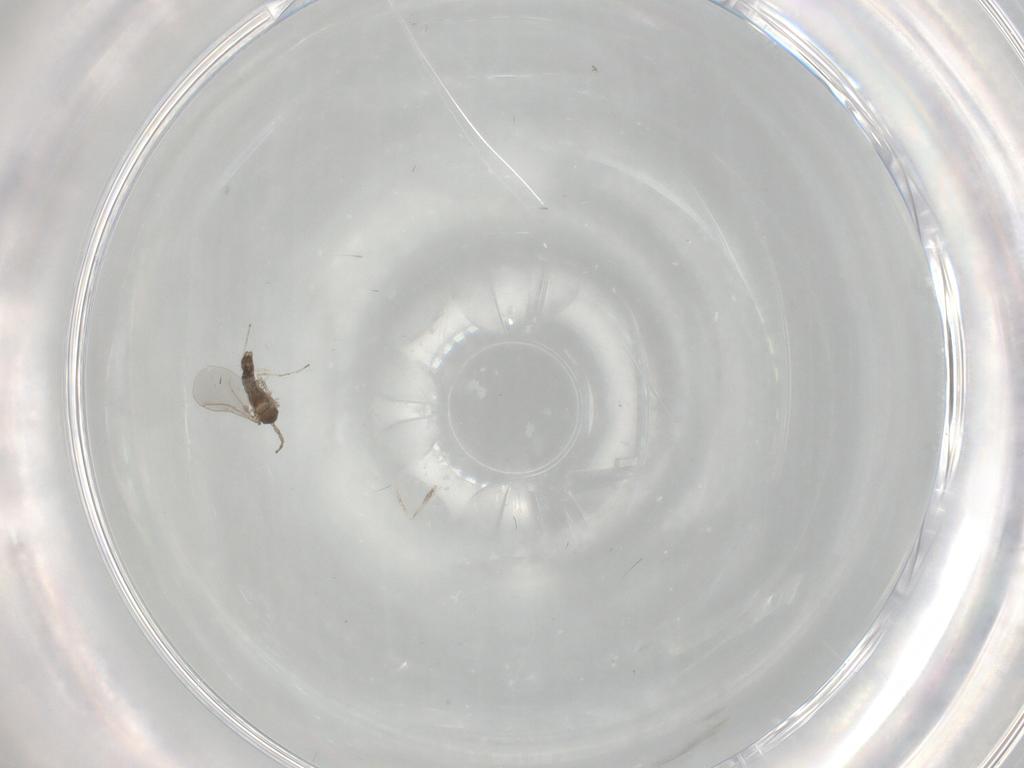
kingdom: Animalia
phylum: Arthropoda
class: Insecta
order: Diptera
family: Cecidomyiidae
